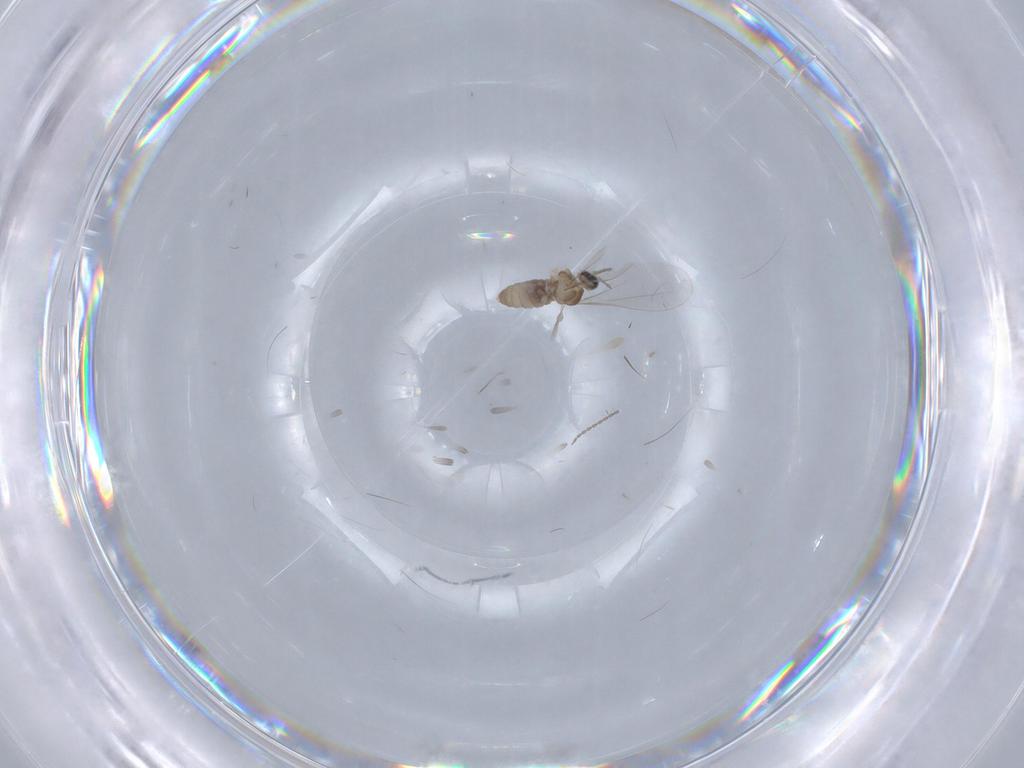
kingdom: Animalia
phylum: Arthropoda
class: Insecta
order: Diptera
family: Cecidomyiidae
